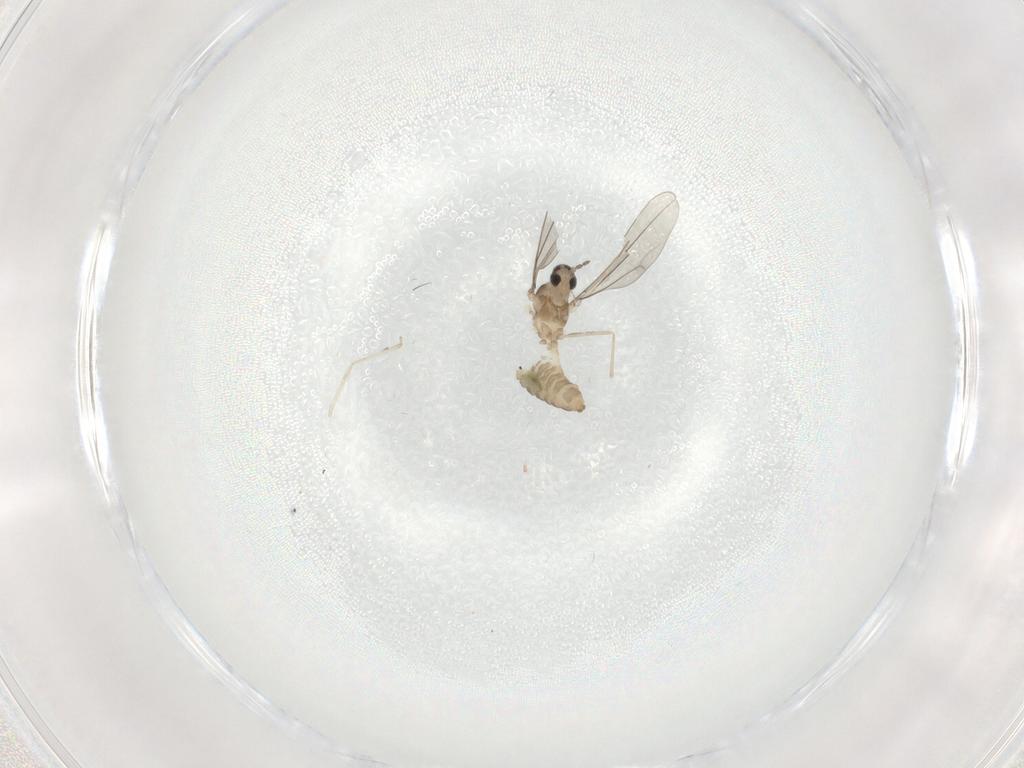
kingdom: Animalia
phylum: Arthropoda
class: Insecta
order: Diptera
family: Cecidomyiidae
